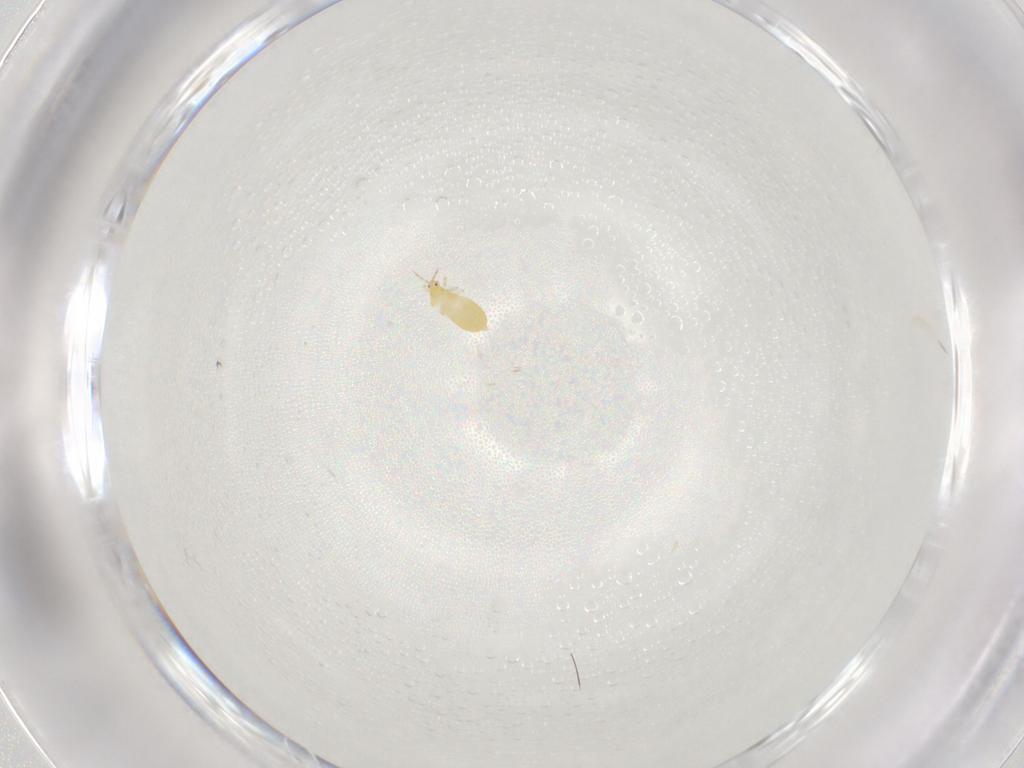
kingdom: Animalia
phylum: Arthropoda
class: Insecta
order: Hymenoptera
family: Eulophidae
